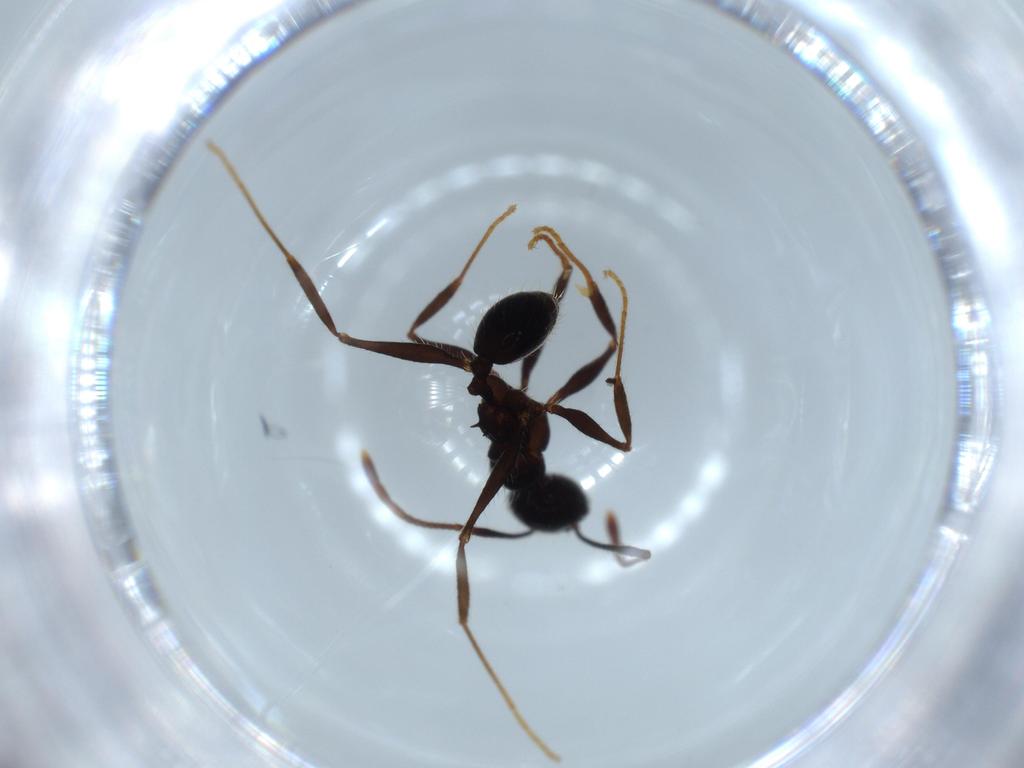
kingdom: Animalia
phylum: Arthropoda
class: Insecta
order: Hymenoptera
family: Formicidae
